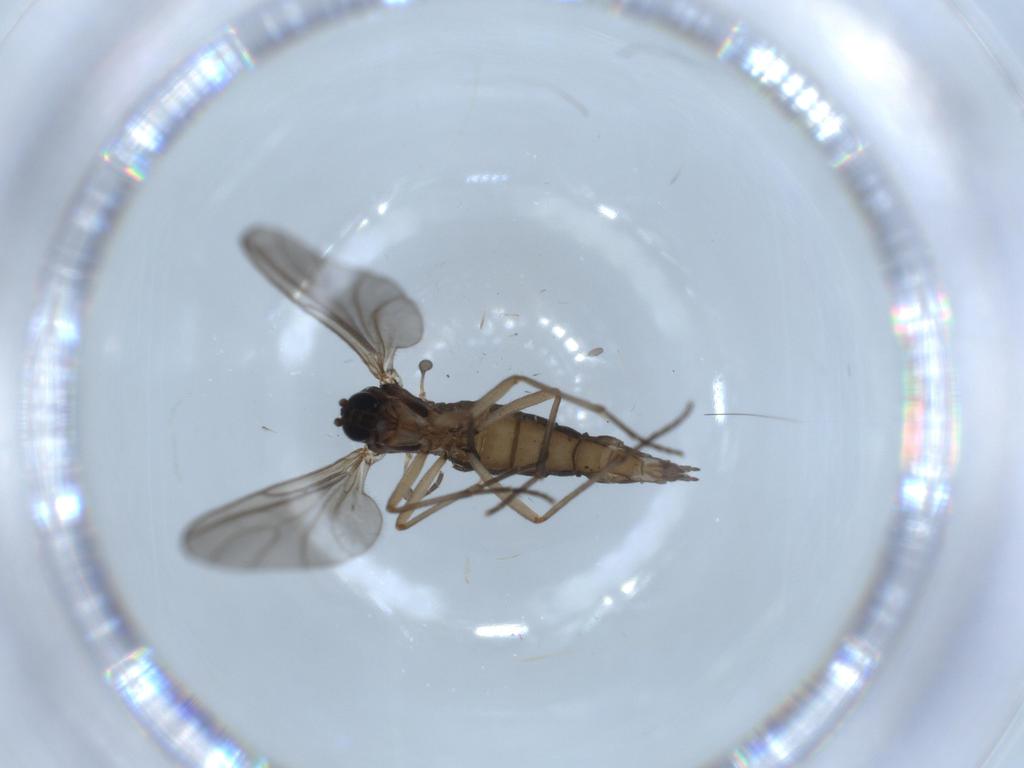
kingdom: Animalia
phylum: Arthropoda
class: Insecta
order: Diptera
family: Sciaridae
